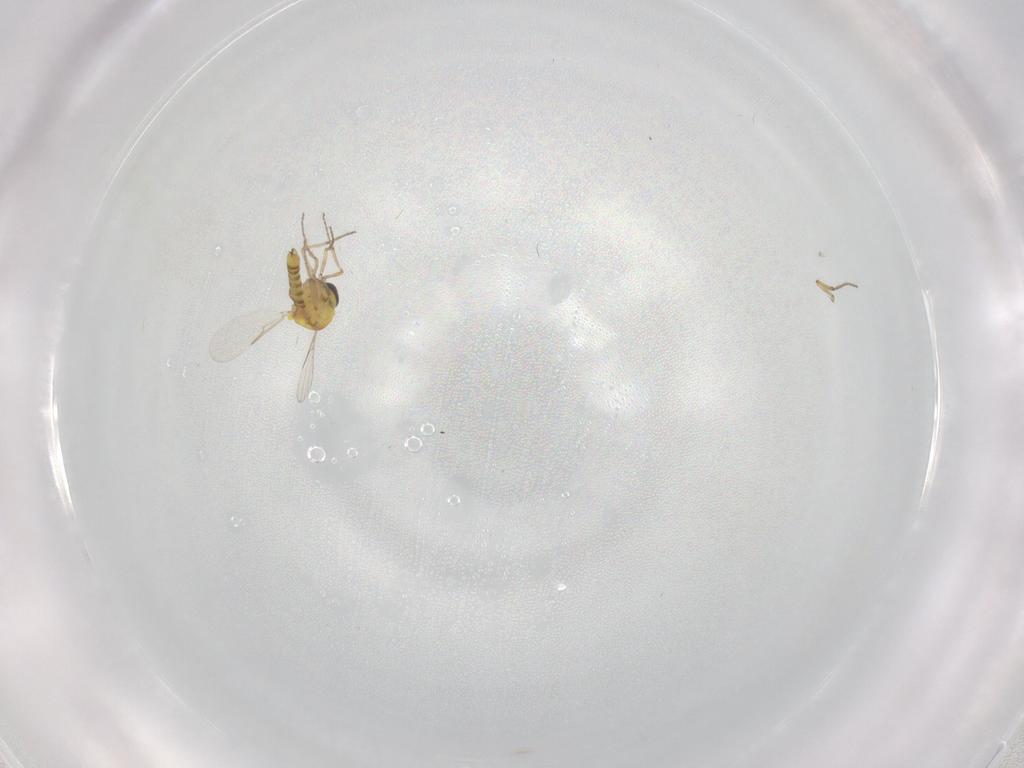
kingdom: Animalia
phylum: Arthropoda
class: Insecta
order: Diptera
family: Ceratopogonidae
